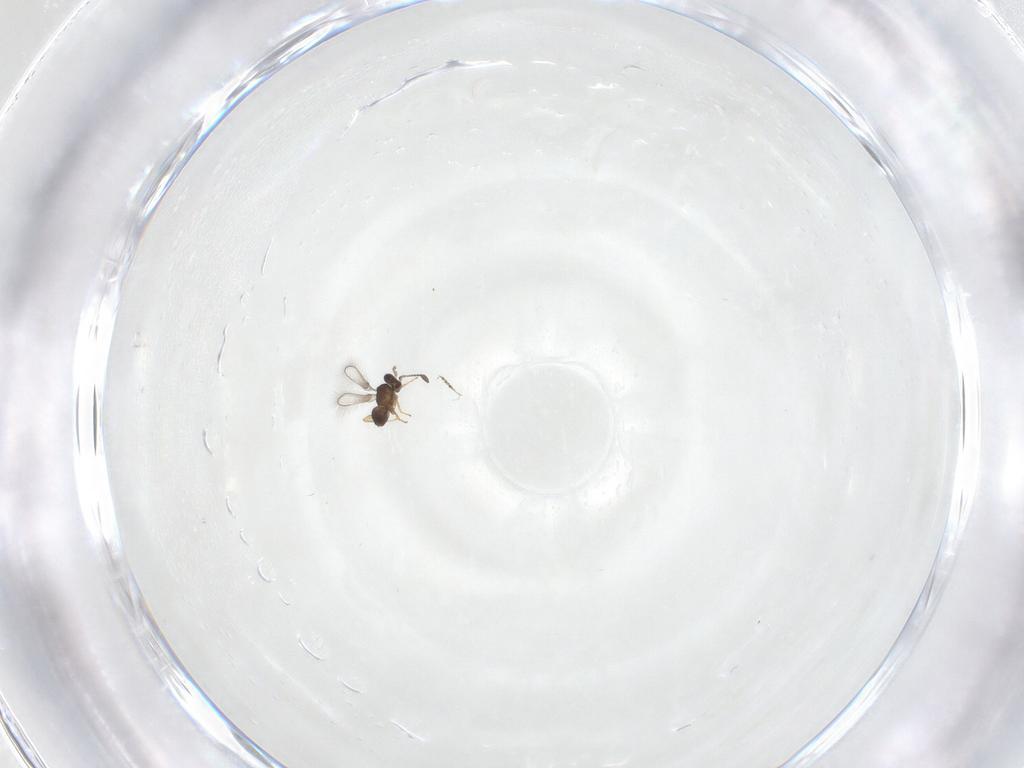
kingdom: Animalia
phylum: Arthropoda
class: Insecta
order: Hymenoptera
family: Mymaridae
